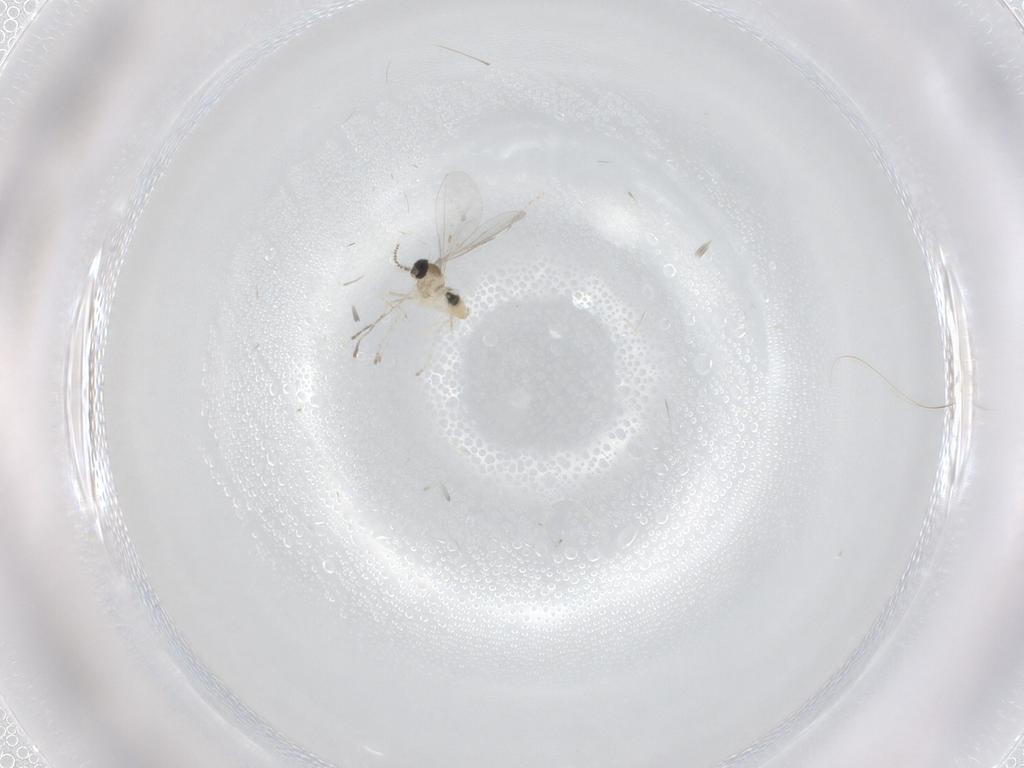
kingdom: Animalia
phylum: Arthropoda
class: Insecta
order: Diptera
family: Cecidomyiidae
